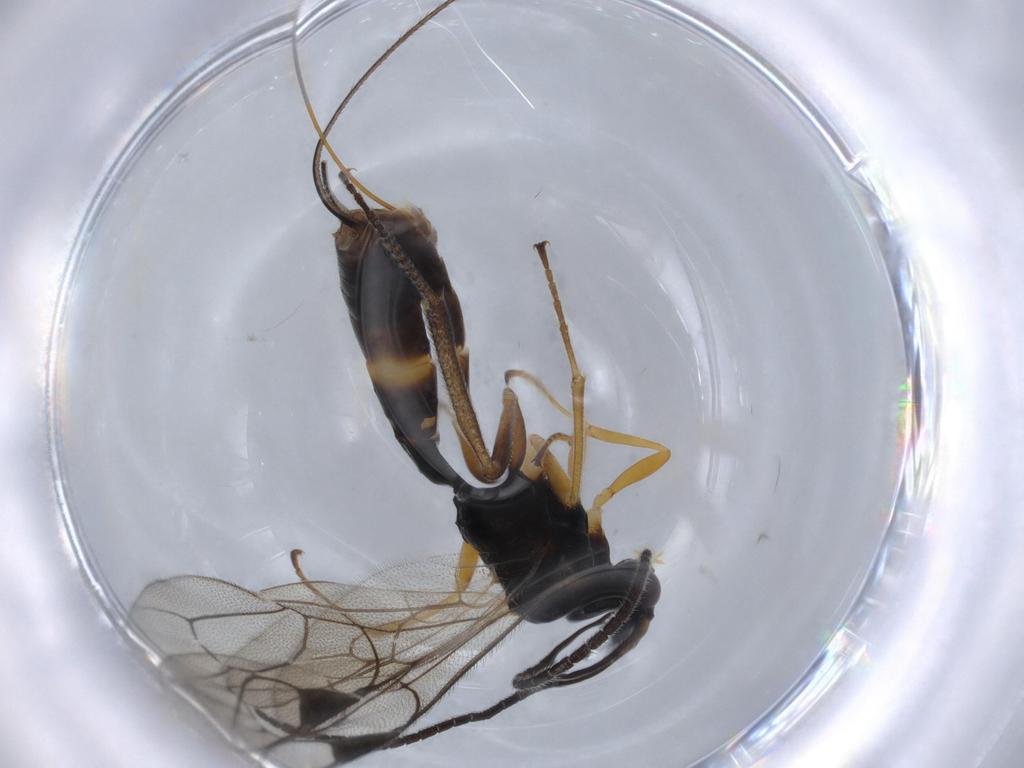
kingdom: Animalia
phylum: Arthropoda
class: Insecta
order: Hymenoptera
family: Ichneumonidae
